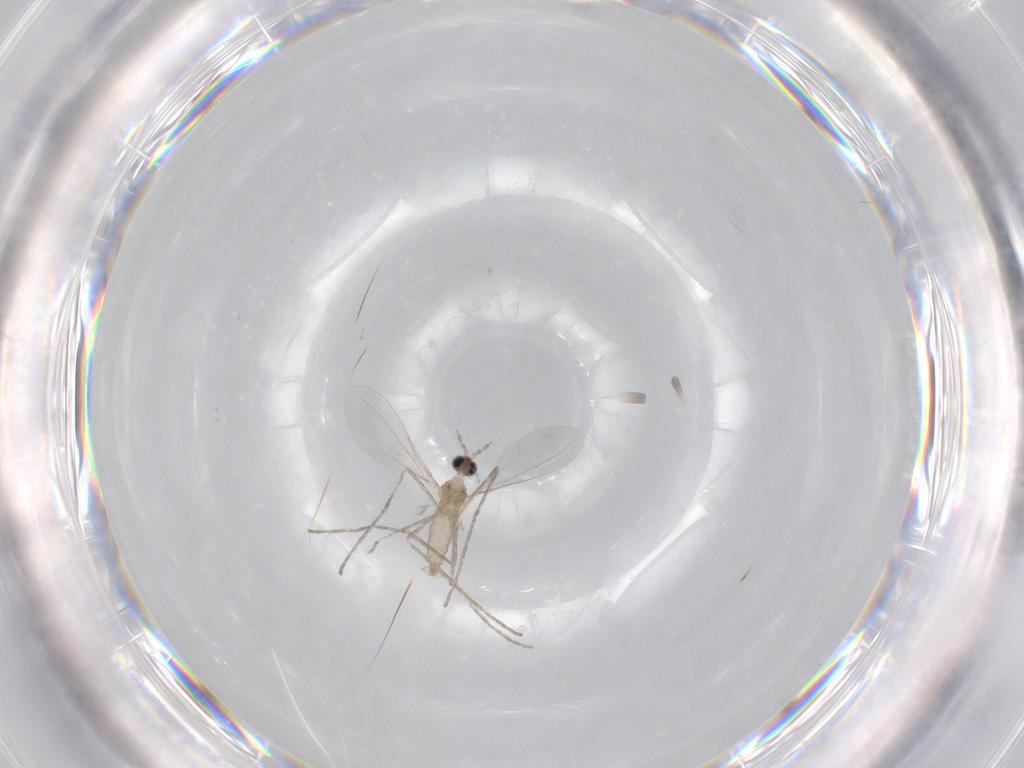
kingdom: Animalia
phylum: Arthropoda
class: Insecta
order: Diptera
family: Cecidomyiidae
